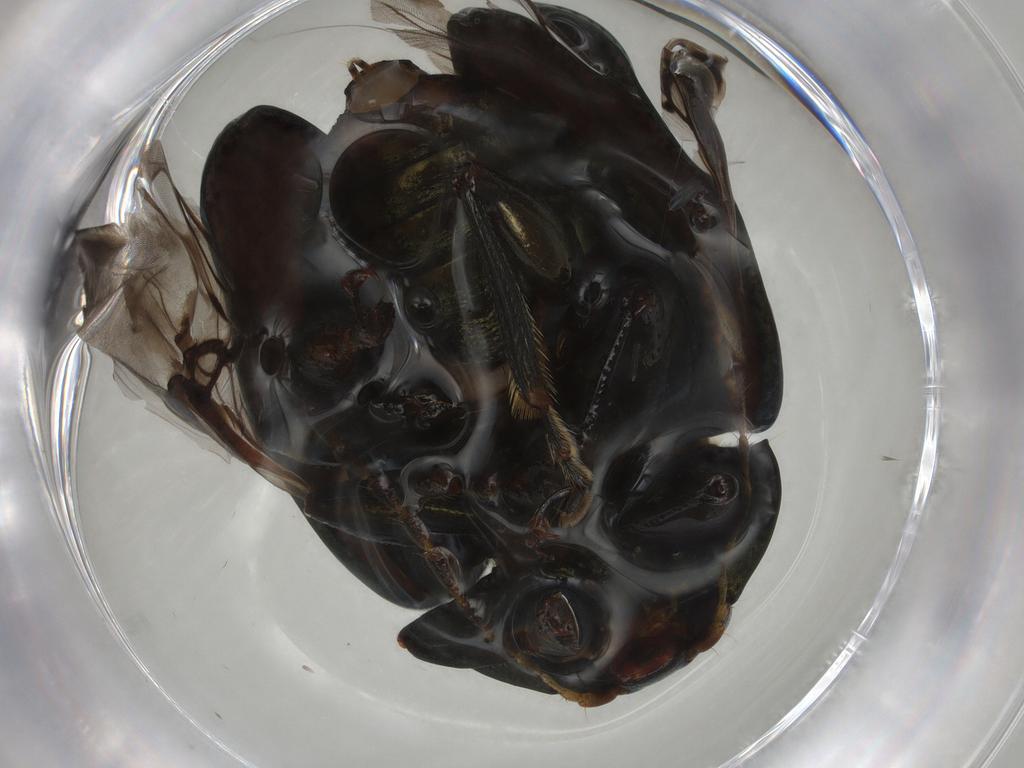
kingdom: Animalia
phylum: Arthropoda
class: Insecta
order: Coleoptera
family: Chrysomelidae
